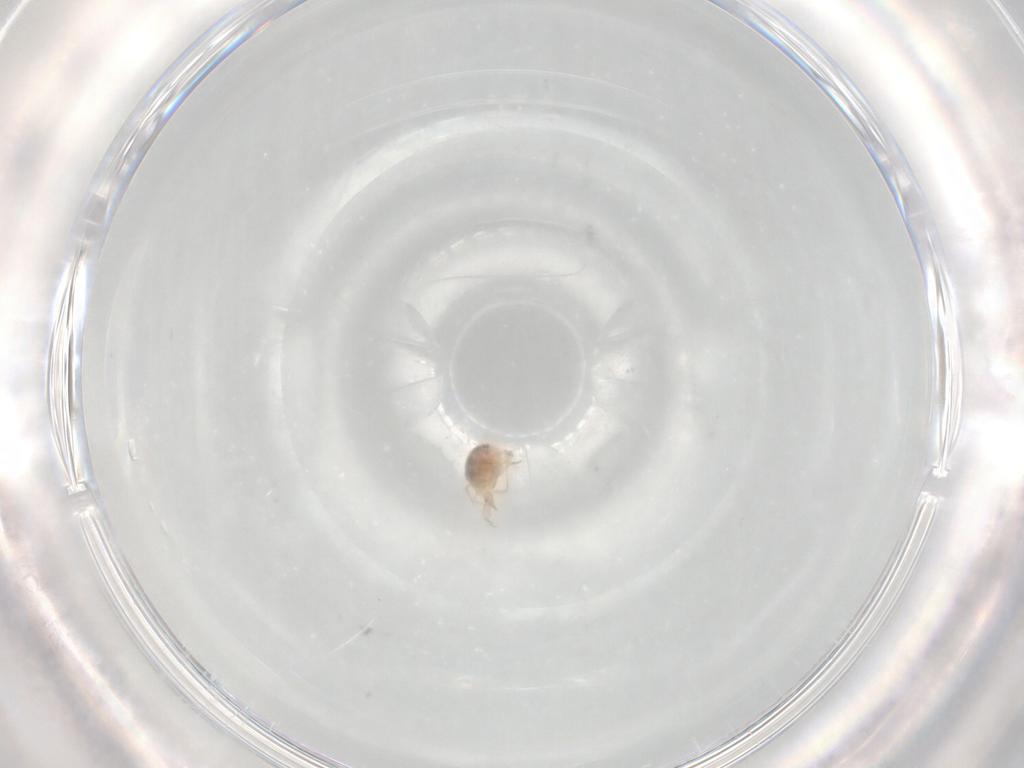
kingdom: Animalia
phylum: Arthropoda
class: Arachnida
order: Trombidiformes
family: Cunaxidae
